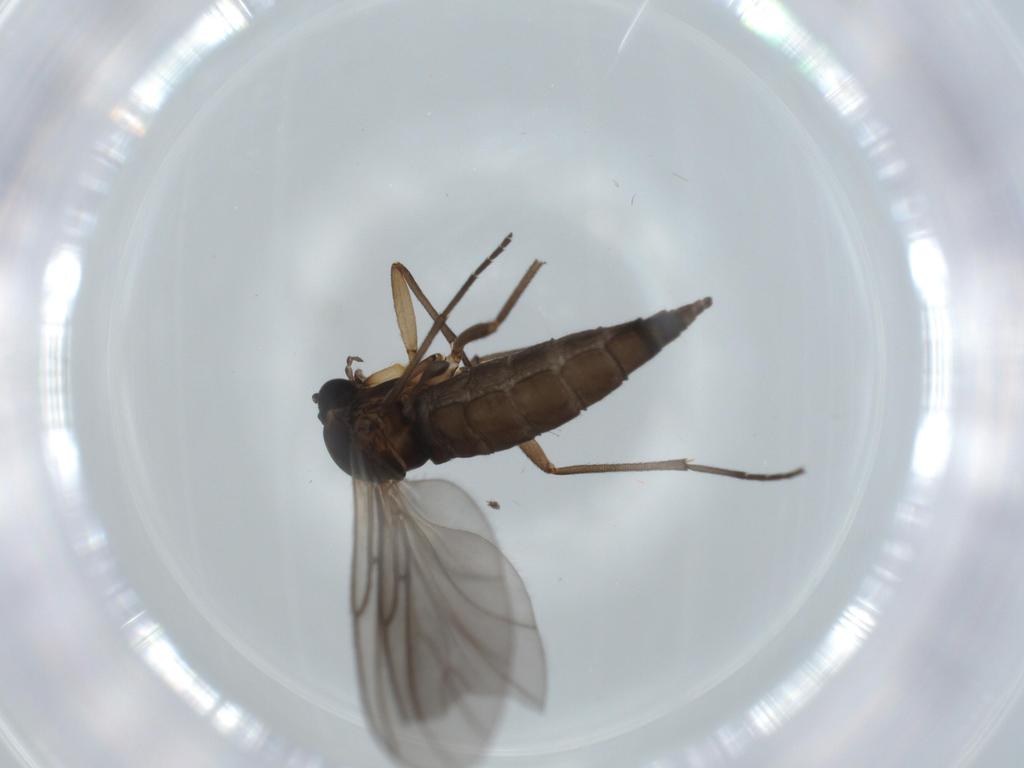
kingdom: Animalia
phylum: Arthropoda
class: Insecta
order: Diptera
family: Sciaridae
